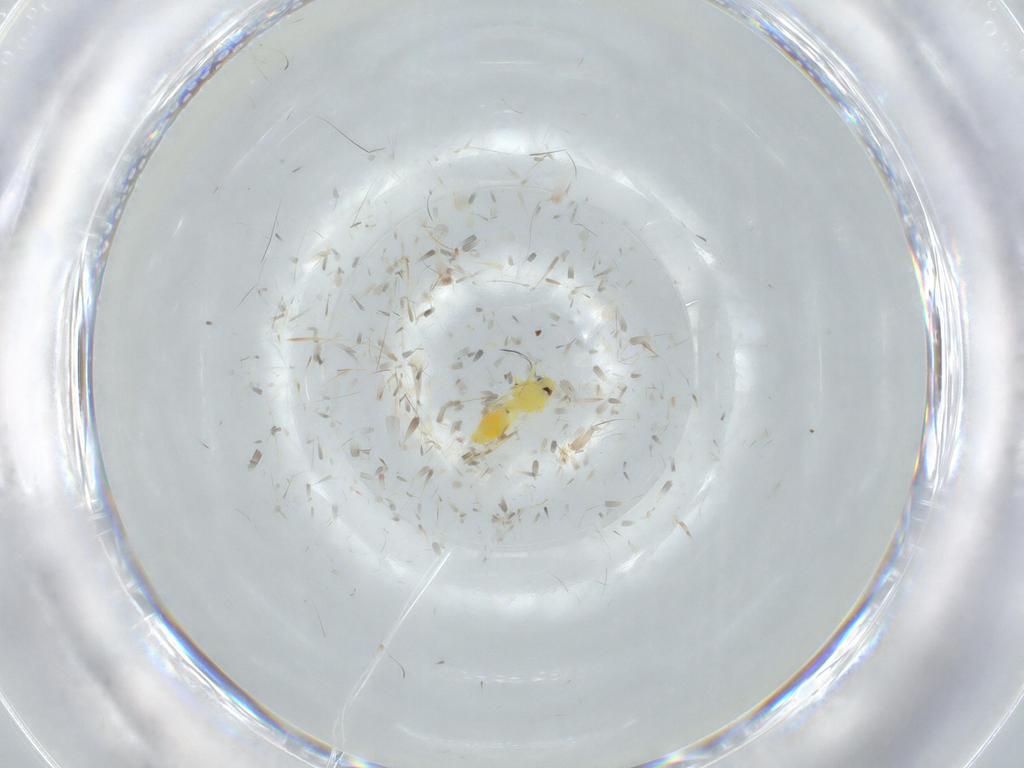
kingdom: Animalia
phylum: Arthropoda
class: Insecta
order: Hemiptera
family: Aleyrodidae
